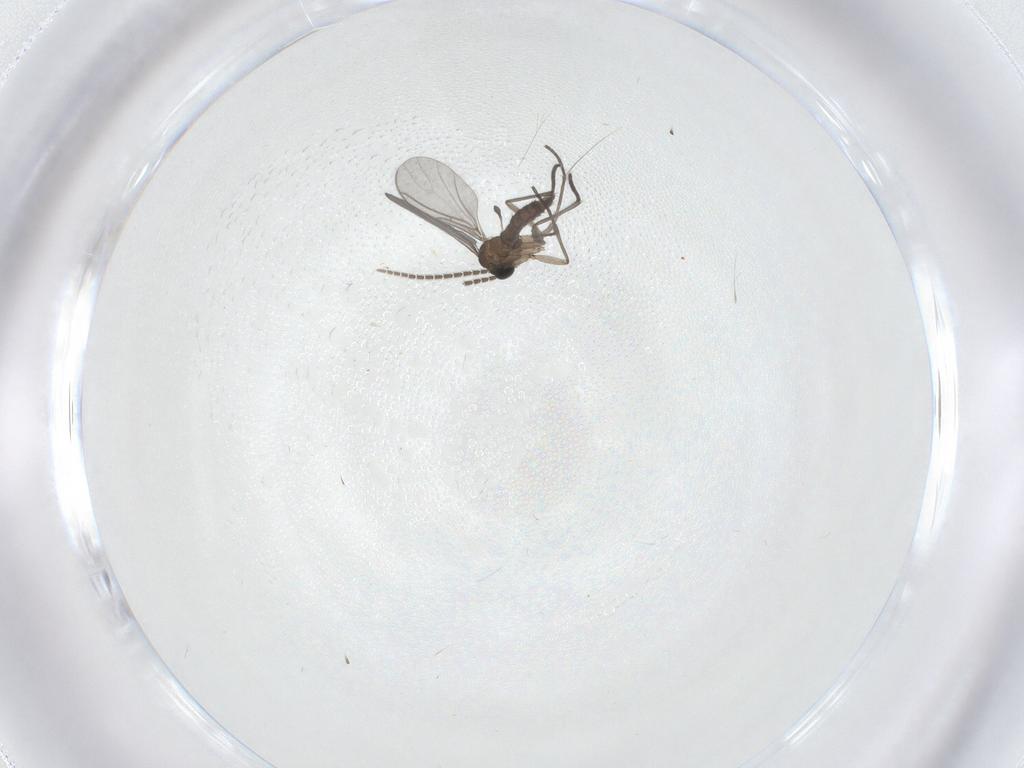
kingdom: Animalia
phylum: Arthropoda
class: Insecta
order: Diptera
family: Sciaridae
